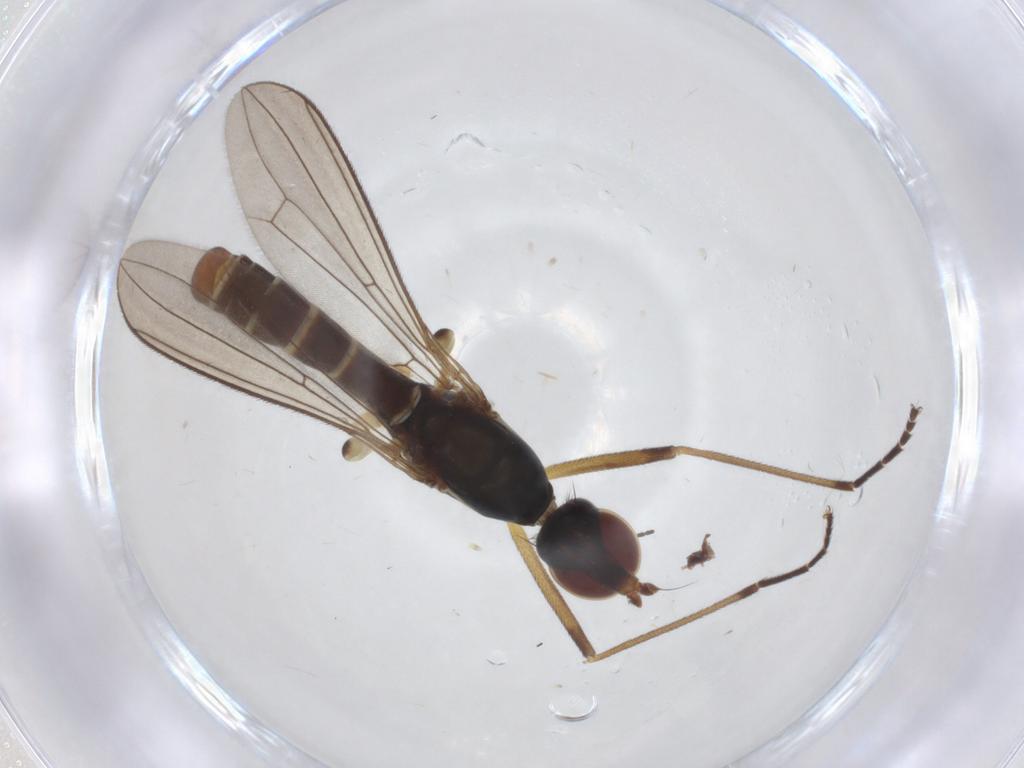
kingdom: Animalia
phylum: Arthropoda
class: Insecta
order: Diptera
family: Micropezidae
